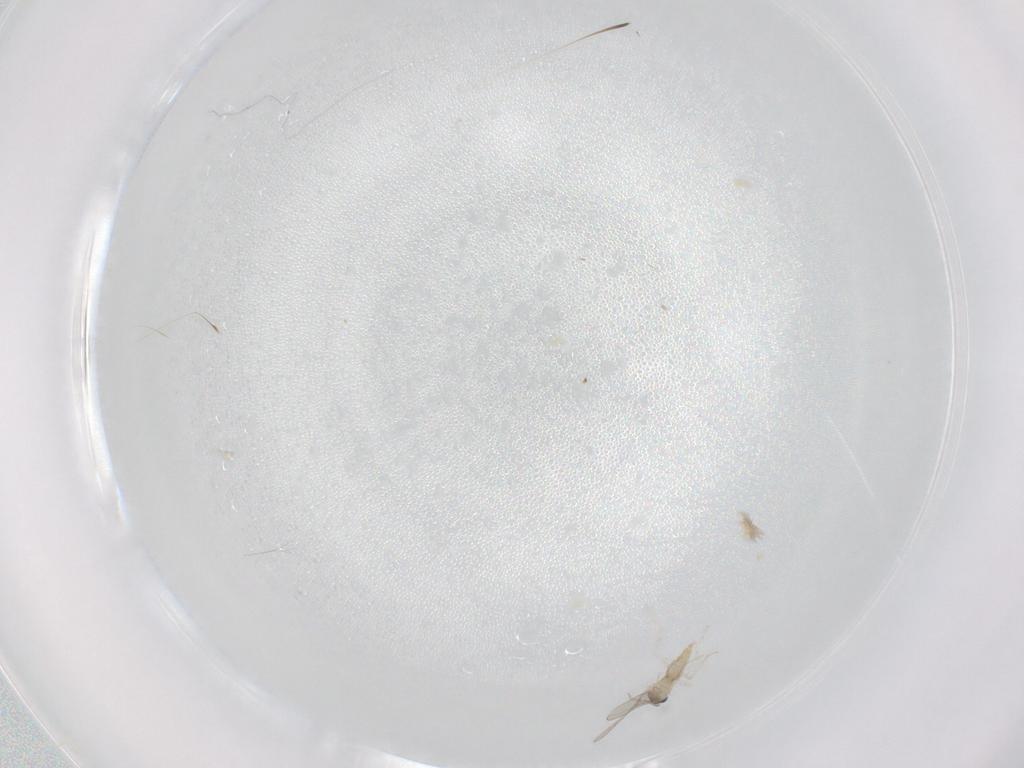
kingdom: Animalia
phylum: Arthropoda
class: Insecta
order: Diptera
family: Cecidomyiidae
